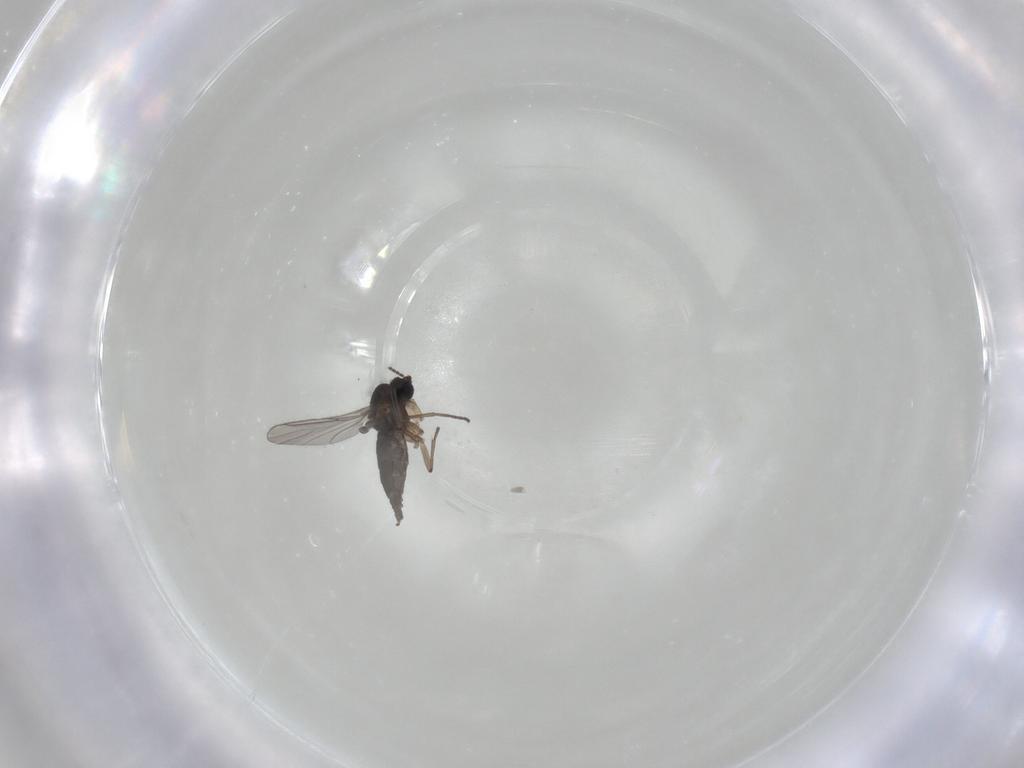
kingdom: Animalia
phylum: Arthropoda
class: Insecta
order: Diptera
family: Sciaridae
